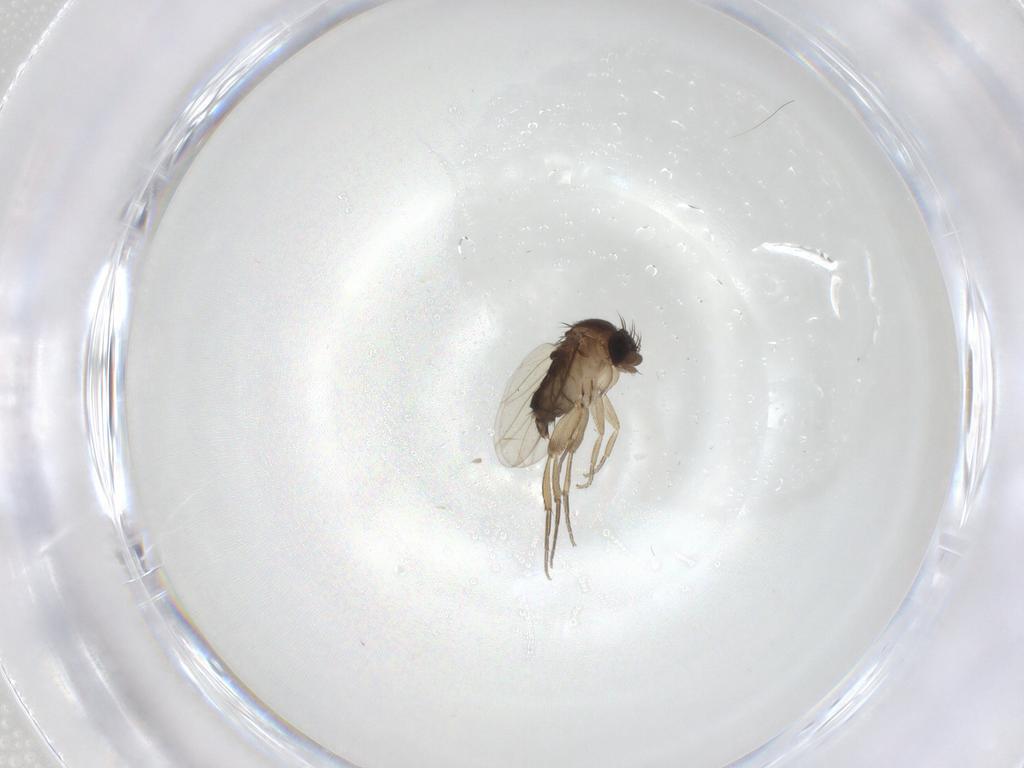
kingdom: Animalia
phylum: Arthropoda
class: Insecta
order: Diptera
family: Phoridae
